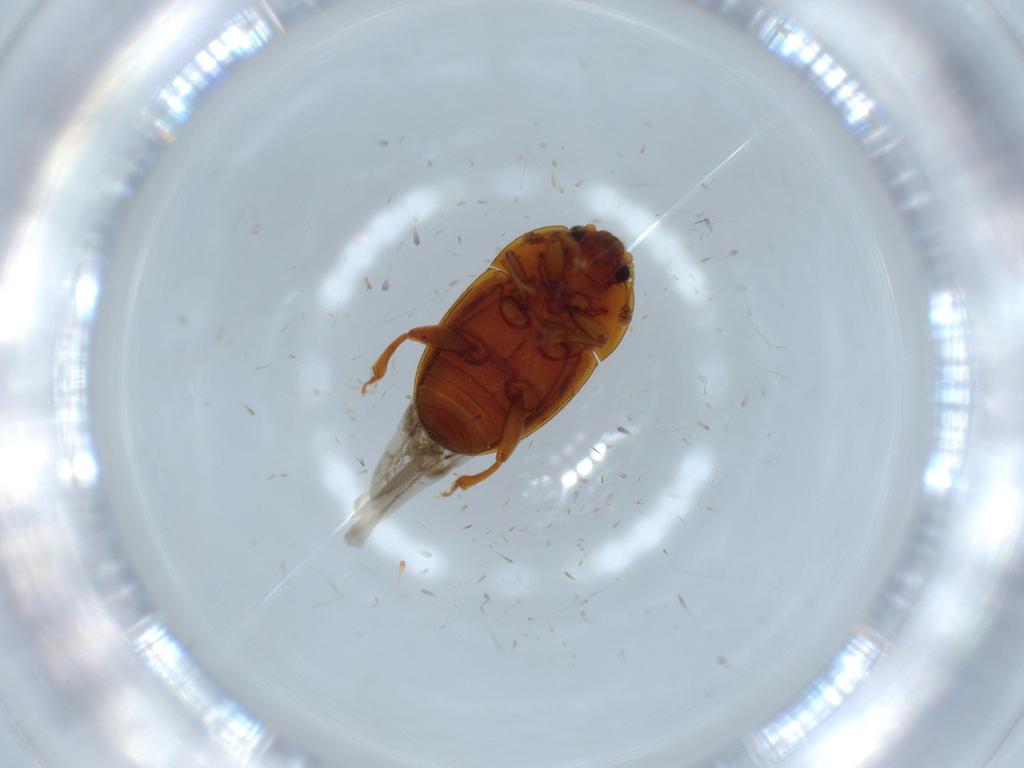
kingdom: Animalia
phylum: Arthropoda
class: Insecta
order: Coleoptera
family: Nitidulidae
